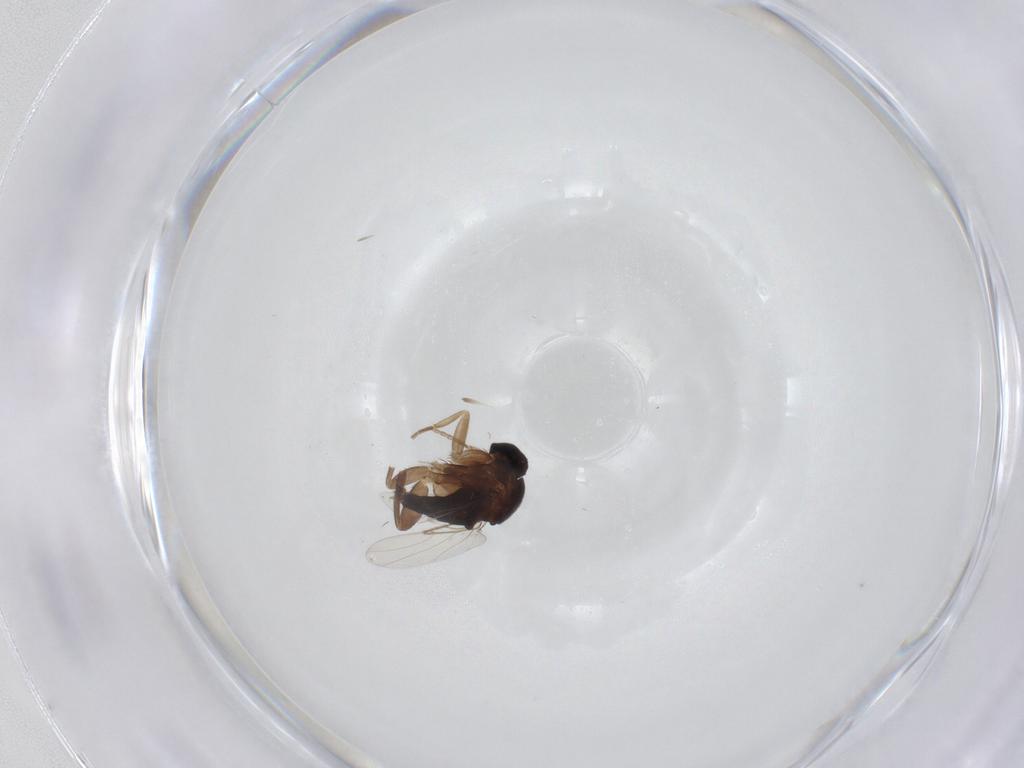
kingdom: Animalia
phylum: Arthropoda
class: Insecta
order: Diptera
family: Phoridae
